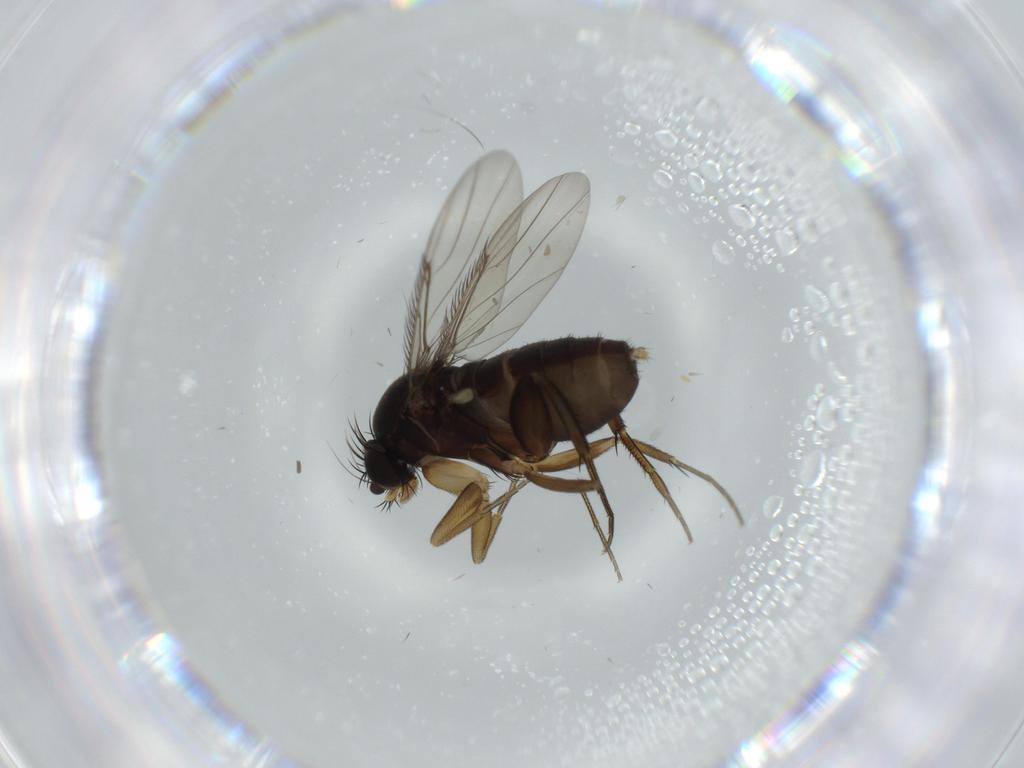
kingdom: Animalia
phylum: Arthropoda
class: Insecta
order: Diptera
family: Phoridae
